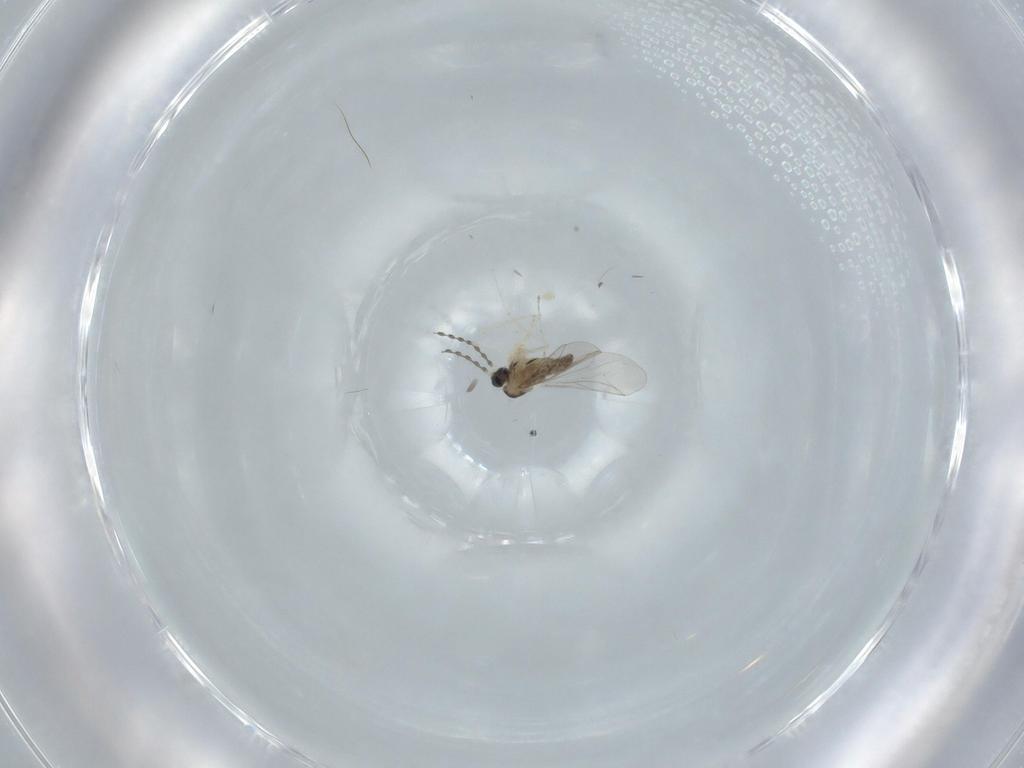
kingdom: Animalia
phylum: Arthropoda
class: Insecta
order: Diptera
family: Cecidomyiidae
